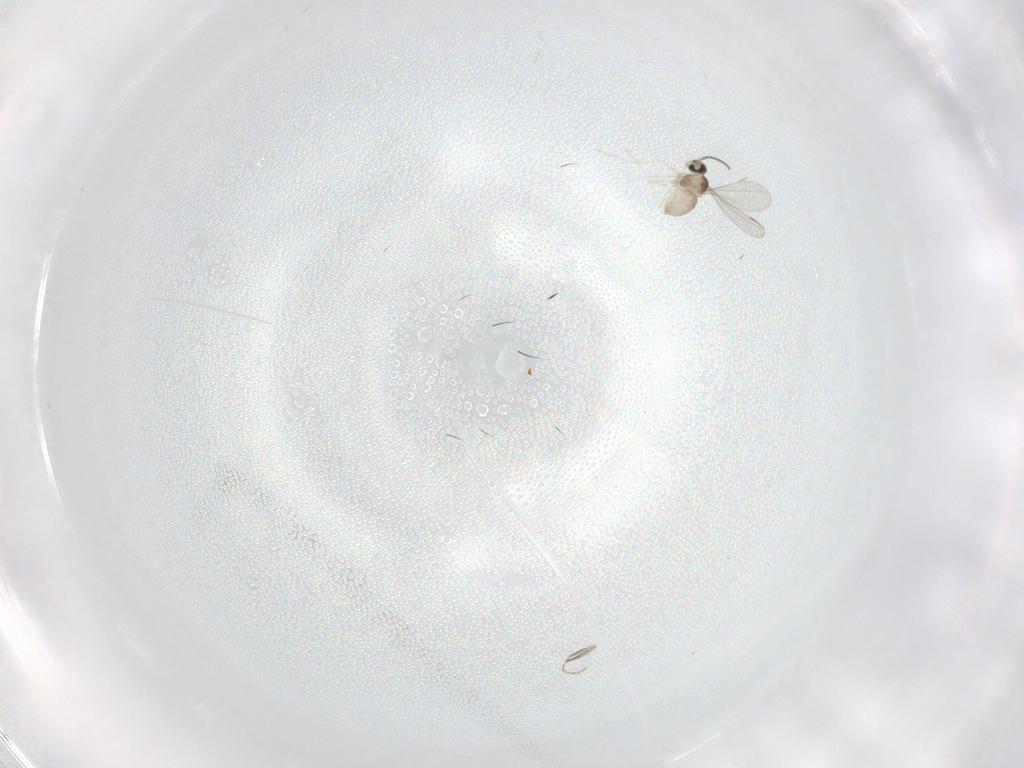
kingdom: Animalia
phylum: Arthropoda
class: Insecta
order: Diptera
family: Cecidomyiidae
